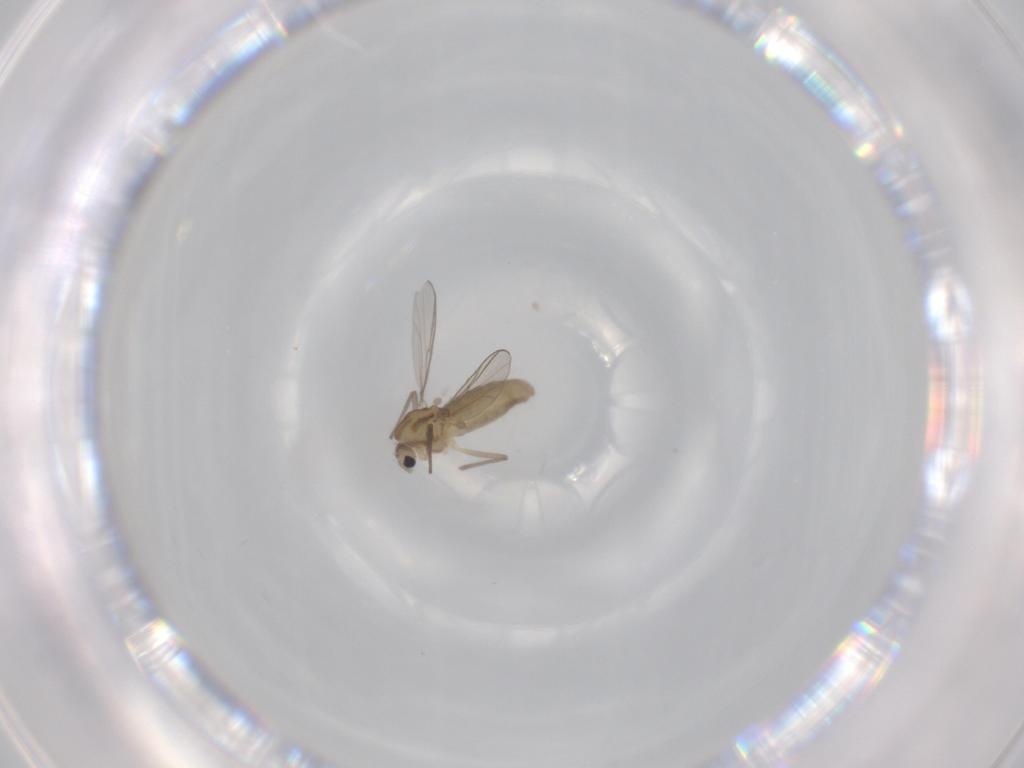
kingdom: Animalia
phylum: Arthropoda
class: Insecta
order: Diptera
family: Chironomidae
